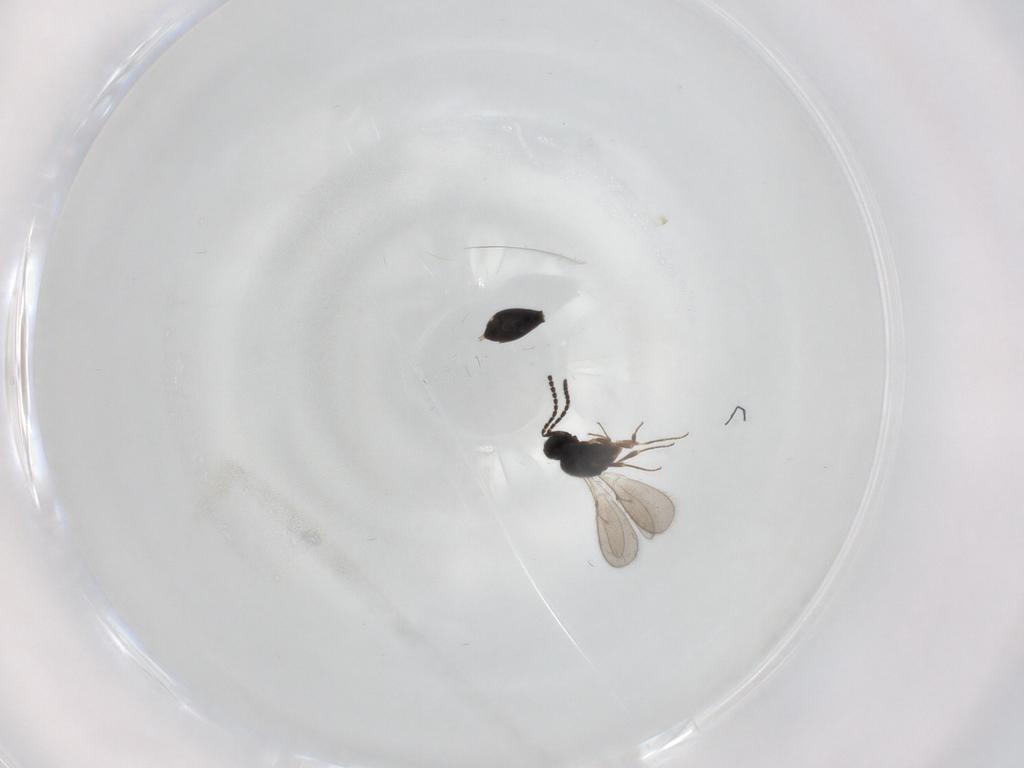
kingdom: Animalia
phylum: Arthropoda
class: Insecta
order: Hymenoptera
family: Scelionidae
